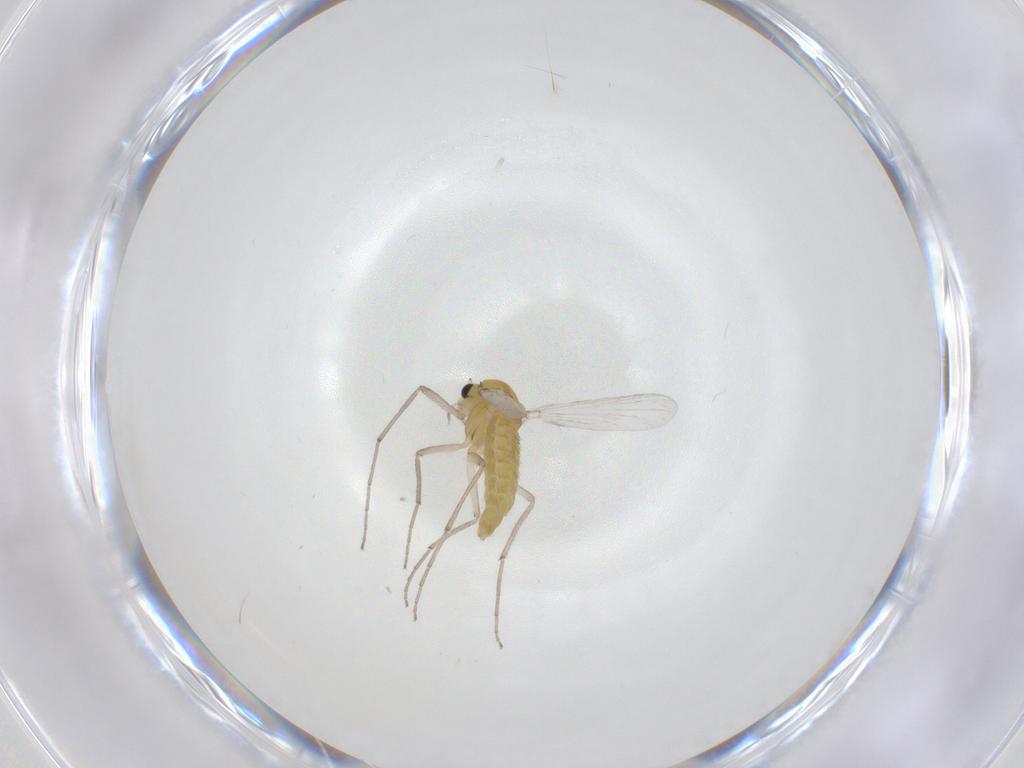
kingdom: Animalia
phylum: Arthropoda
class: Insecta
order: Diptera
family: Chironomidae
